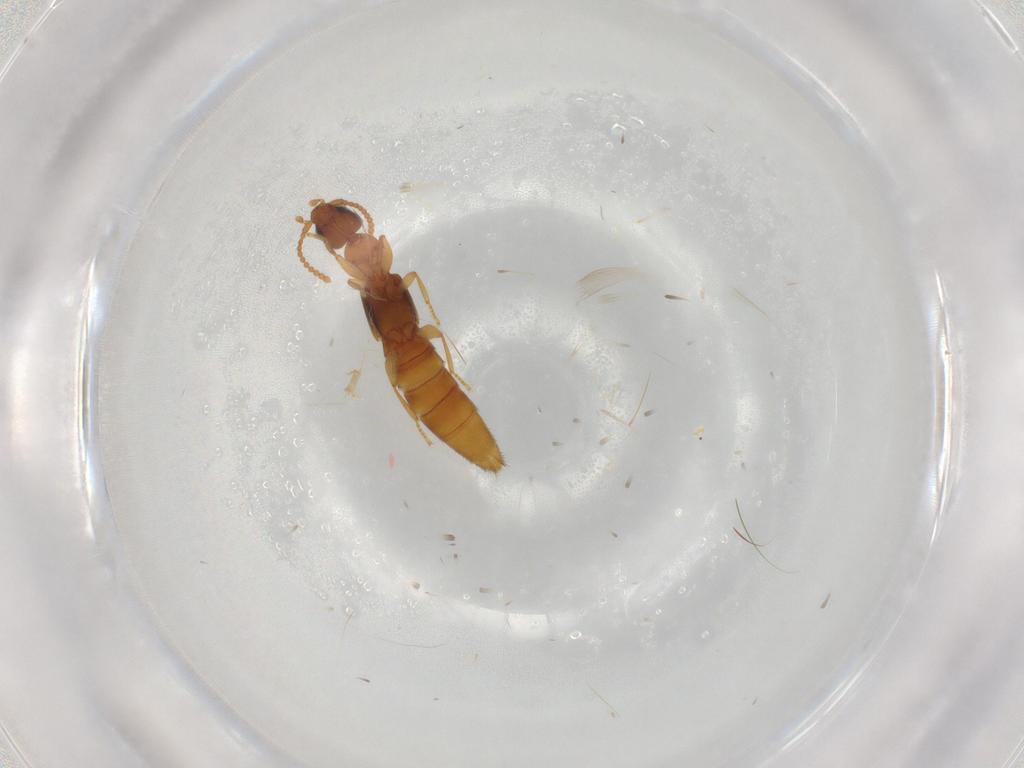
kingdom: Animalia
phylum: Arthropoda
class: Insecta
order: Coleoptera
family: Staphylinidae
